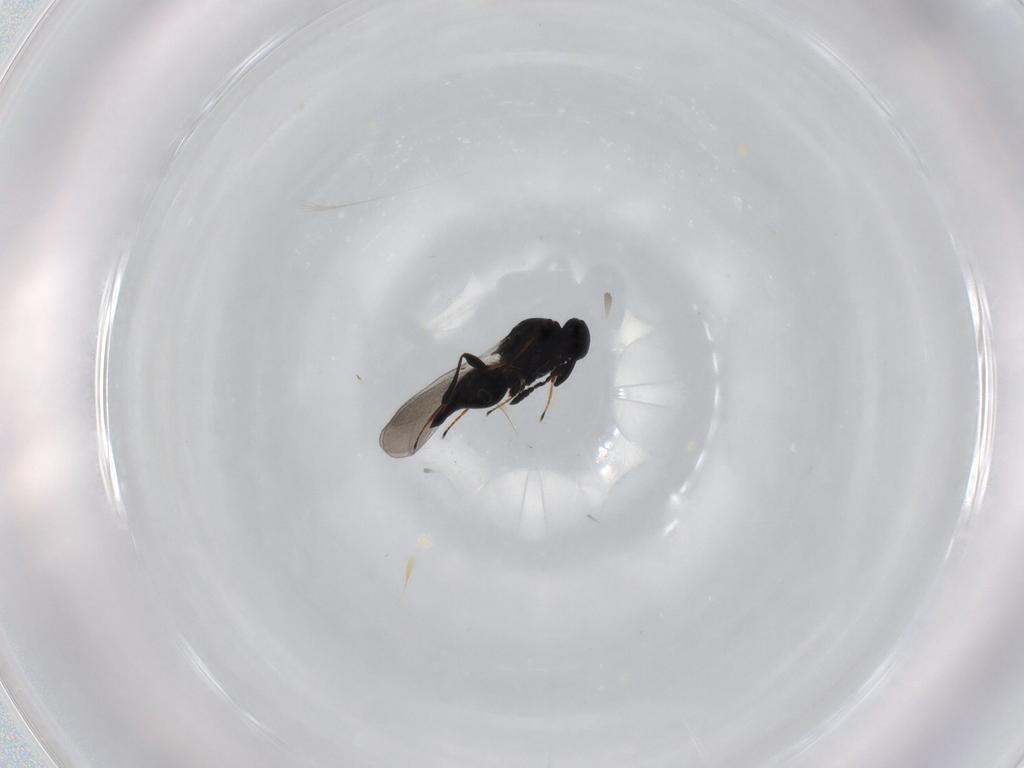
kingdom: Animalia
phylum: Arthropoda
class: Insecta
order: Hymenoptera
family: Platygastridae
